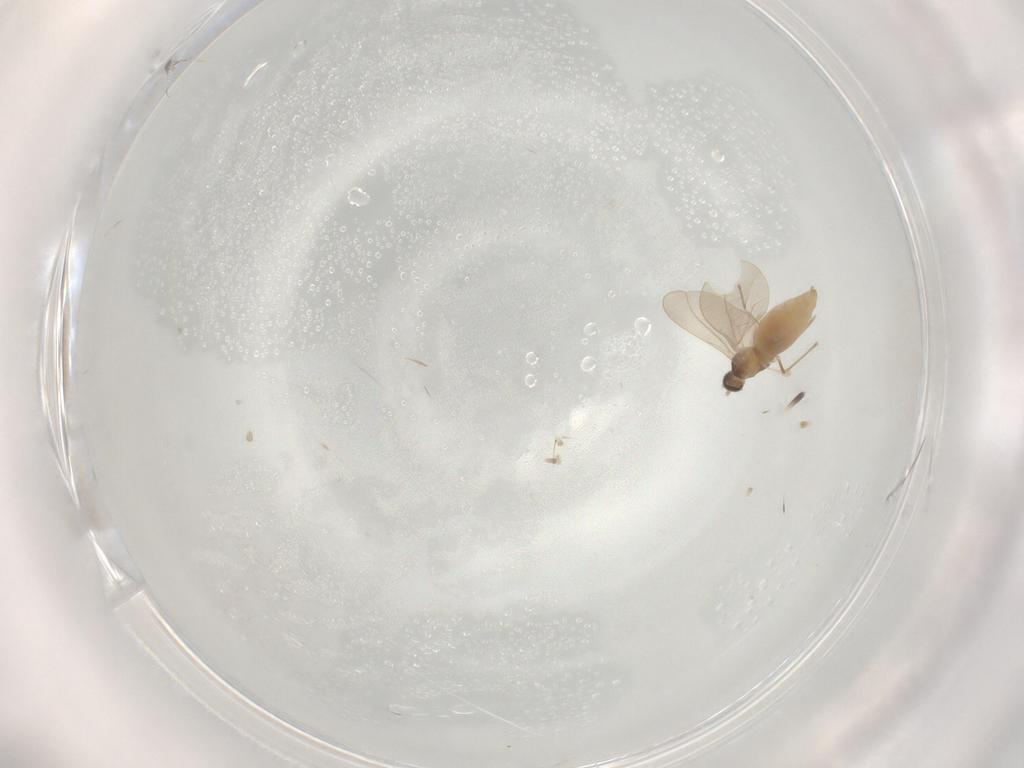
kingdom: Animalia
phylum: Arthropoda
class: Insecta
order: Diptera
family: Cecidomyiidae
